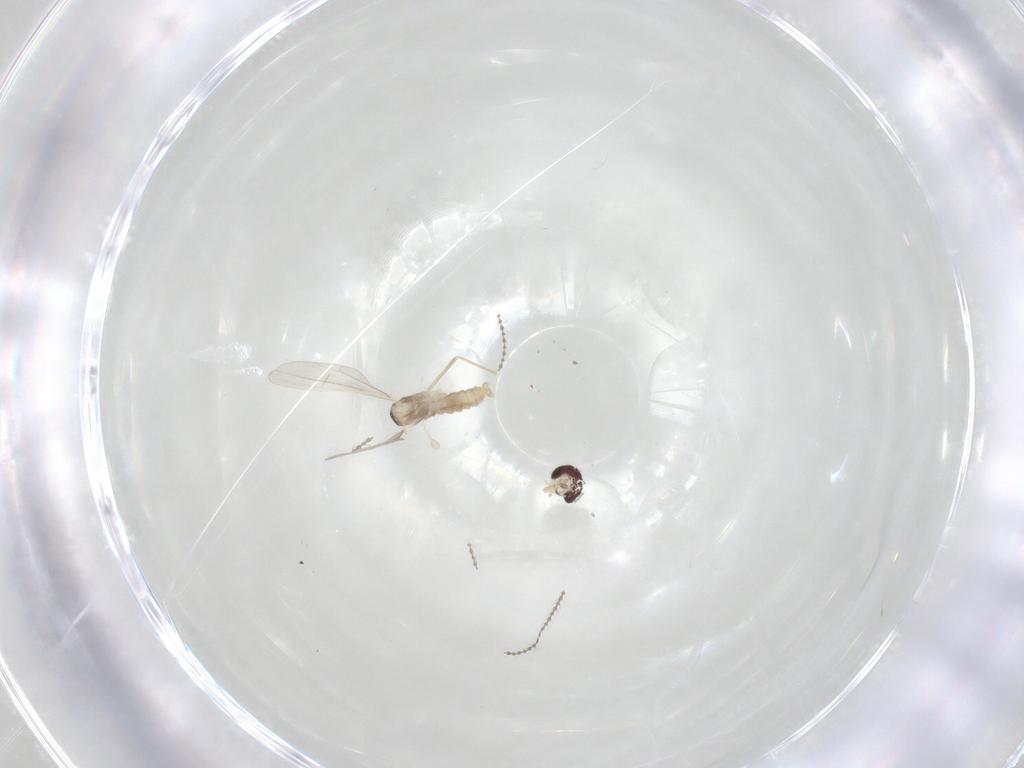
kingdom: Animalia
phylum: Arthropoda
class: Insecta
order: Diptera
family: Cecidomyiidae
